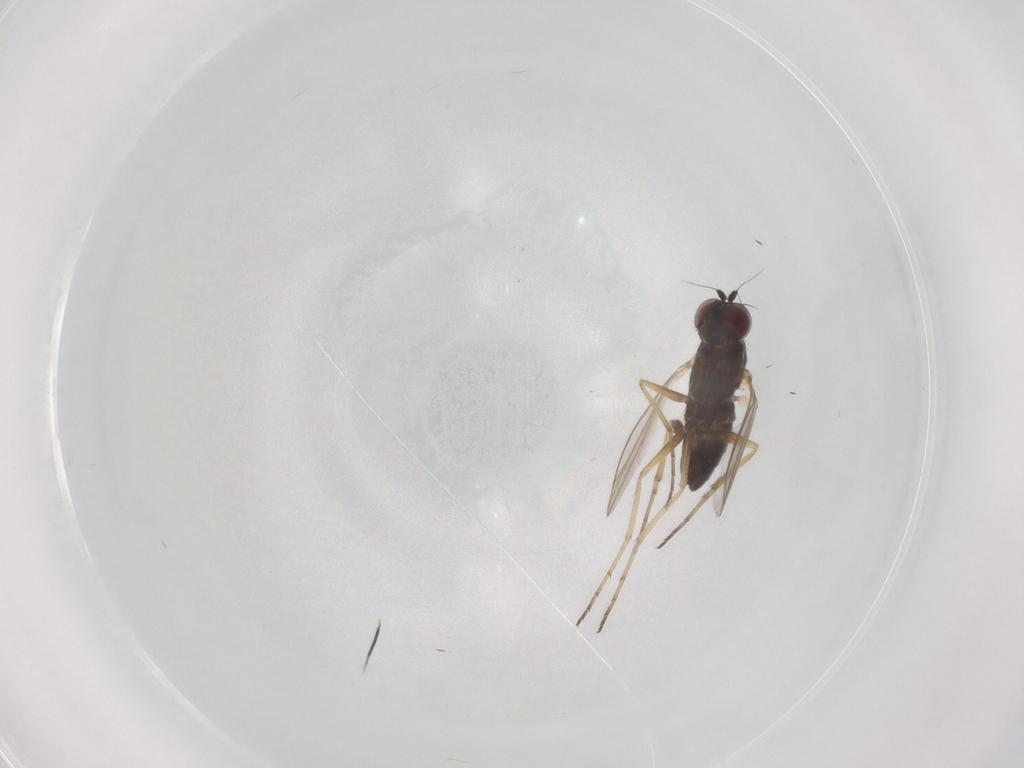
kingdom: Animalia
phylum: Arthropoda
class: Insecta
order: Diptera
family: Dolichopodidae
